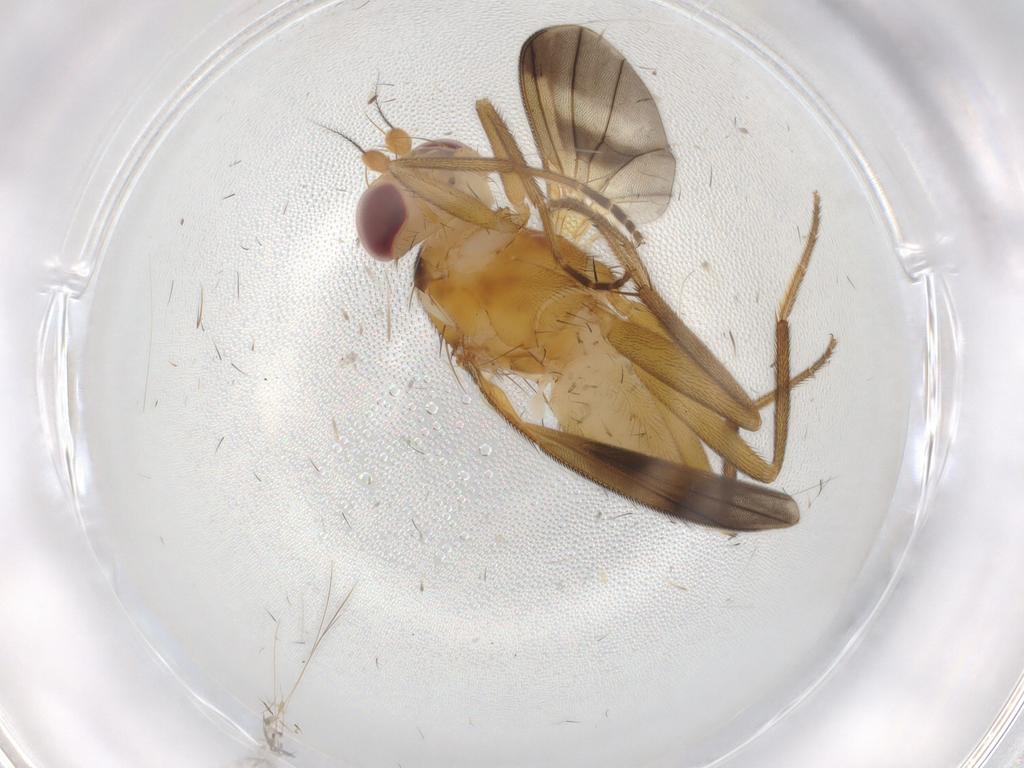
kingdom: Animalia
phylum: Arthropoda
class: Insecta
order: Diptera
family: Clusiidae
